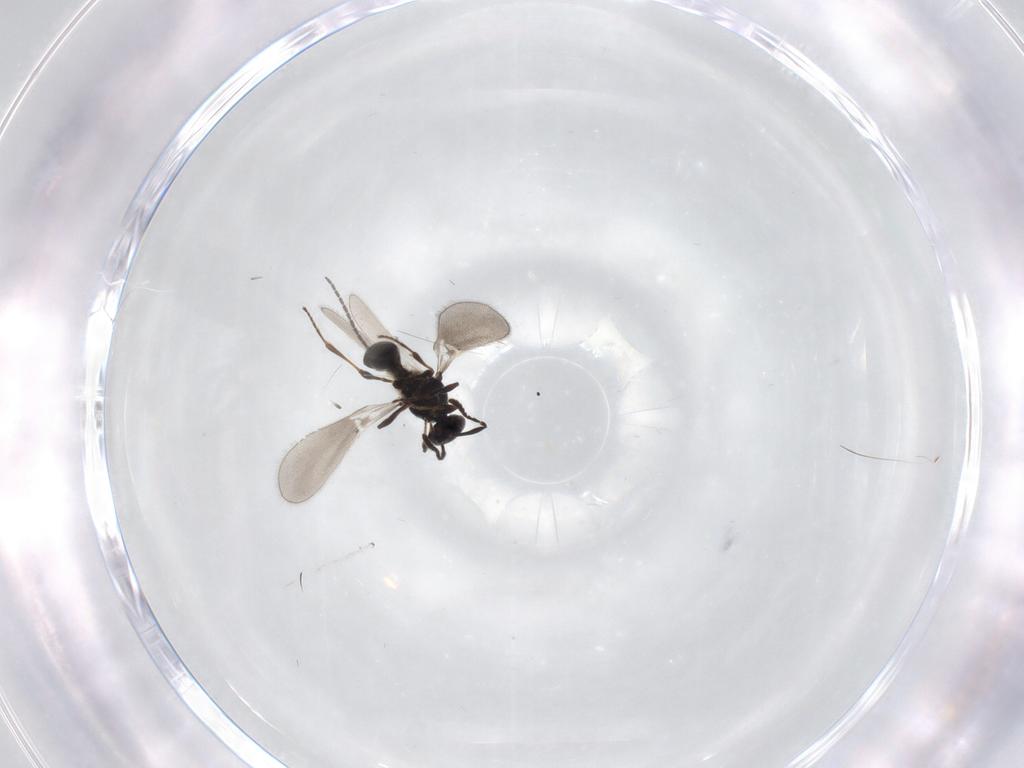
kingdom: Animalia
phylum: Arthropoda
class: Insecta
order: Hymenoptera
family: Platygastridae
